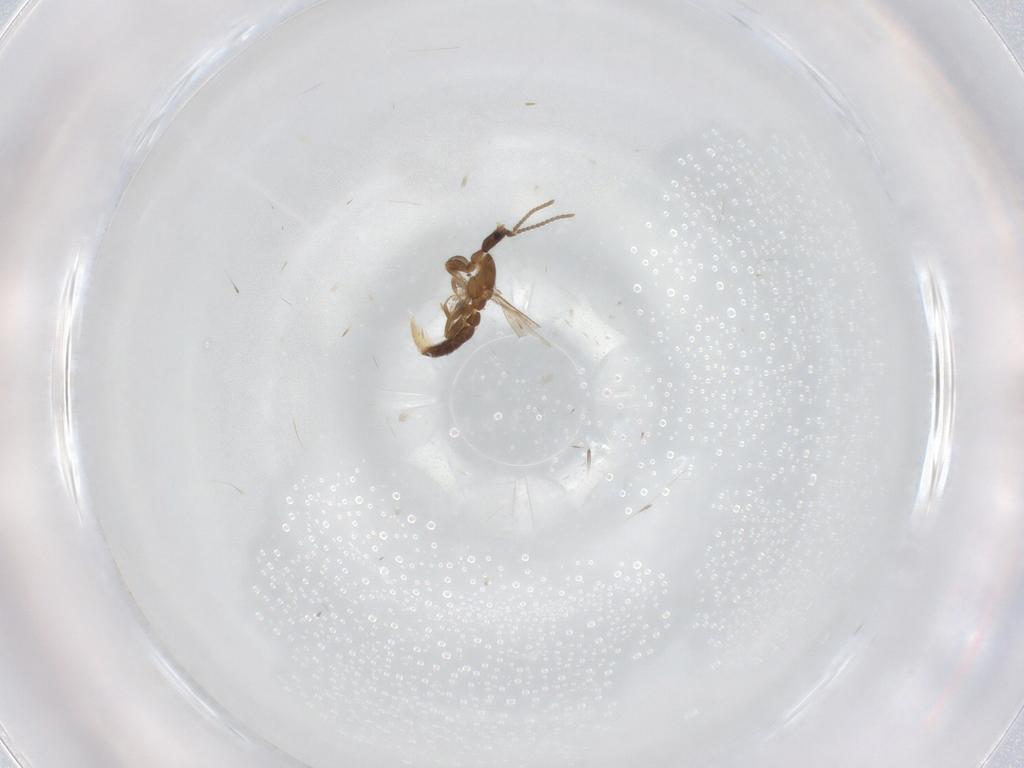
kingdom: Animalia
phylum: Arthropoda
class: Insecta
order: Hymenoptera
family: Formicidae
